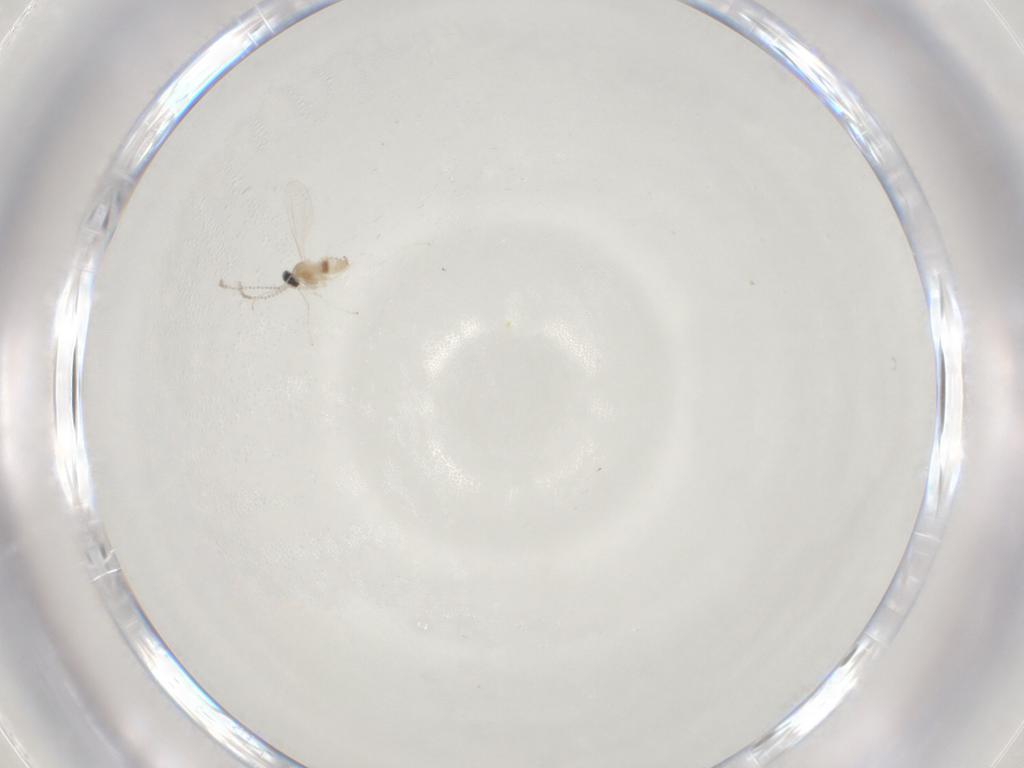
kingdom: Animalia
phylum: Arthropoda
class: Insecta
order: Diptera
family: Cecidomyiidae
